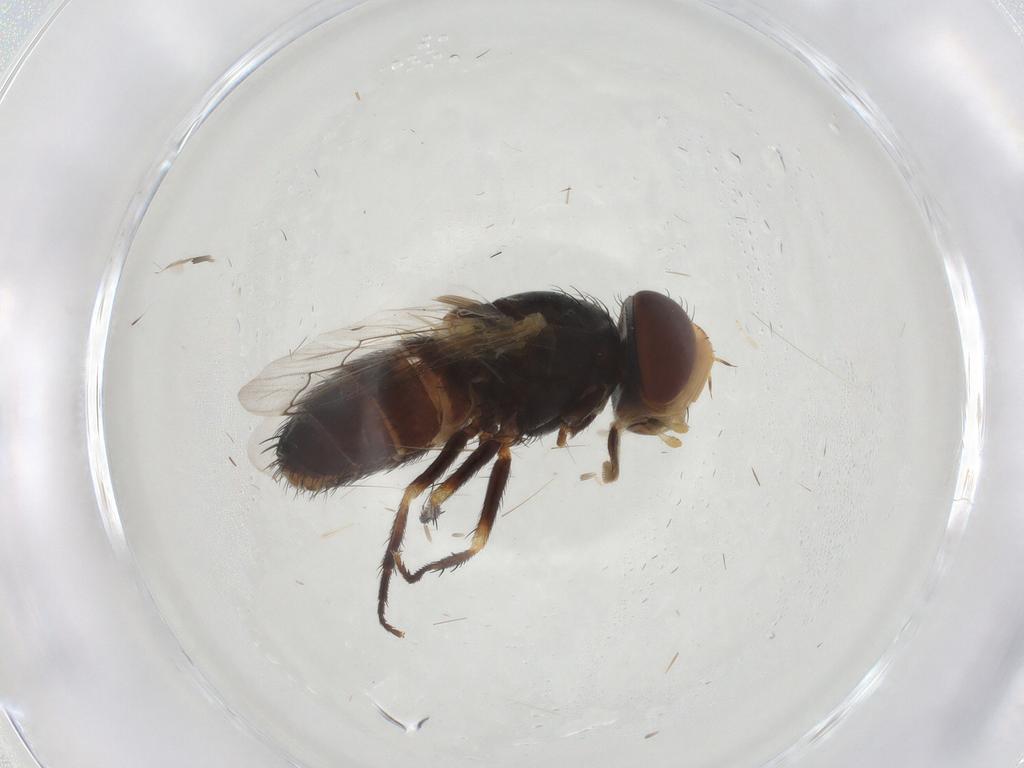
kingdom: Animalia
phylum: Arthropoda
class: Insecta
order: Diptera
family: Sarcophagidae
